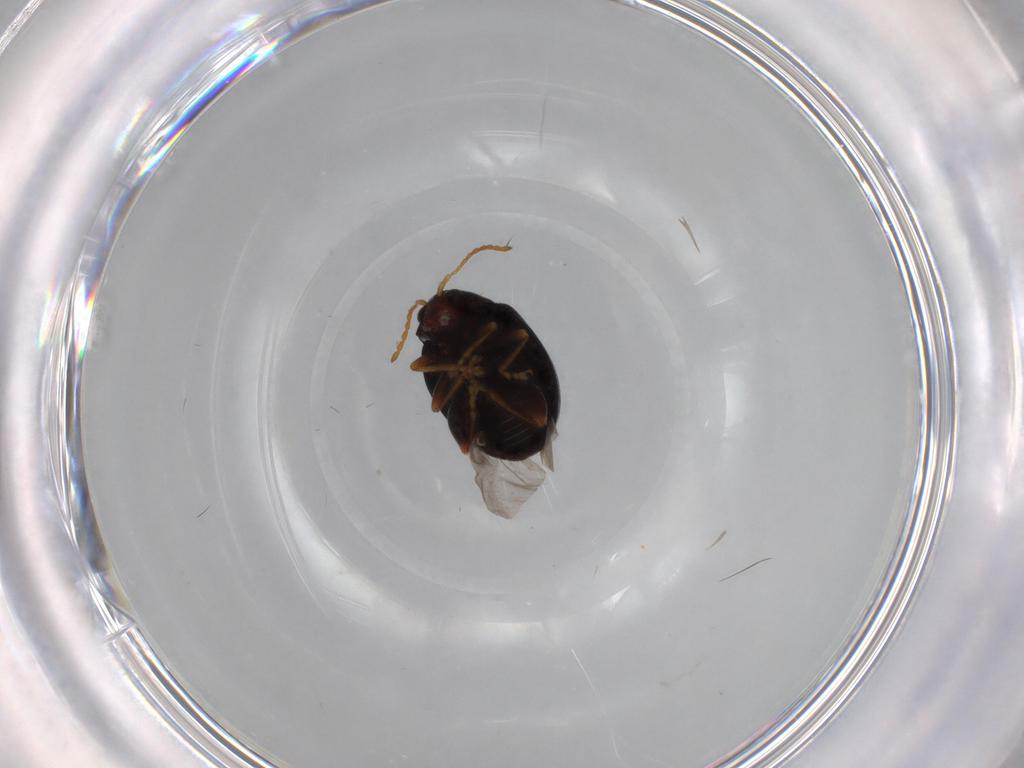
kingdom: Animalia
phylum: Arthropoda
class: Insecta
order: Coleoptera
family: Chrysomelidae
